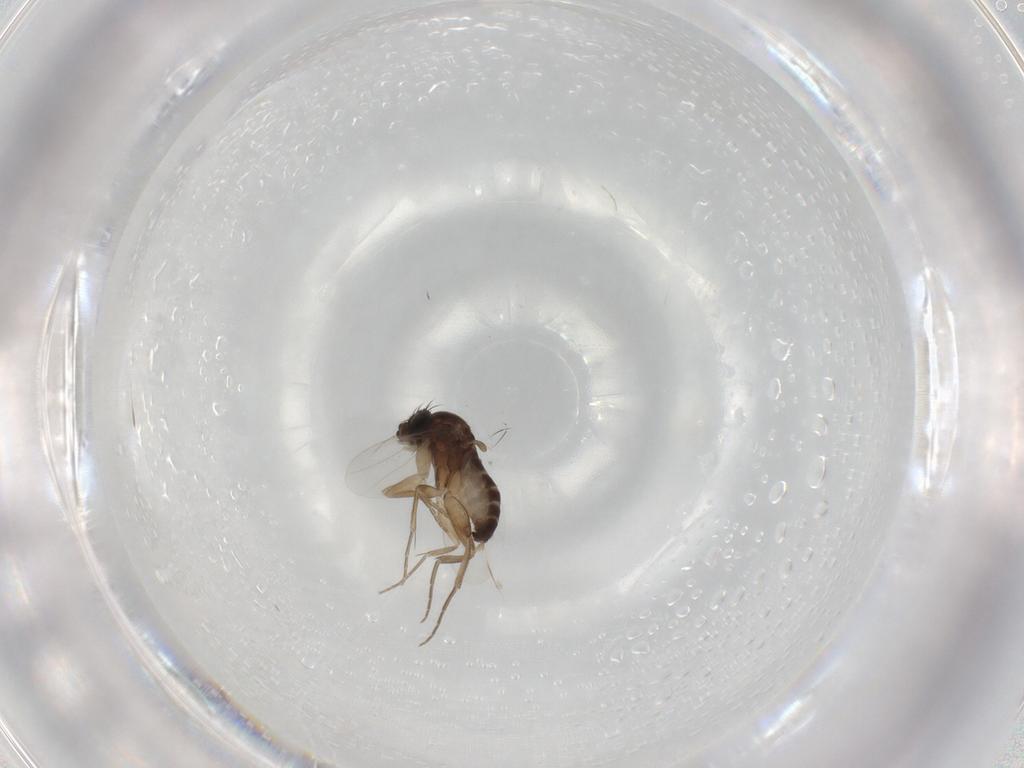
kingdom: Animalia
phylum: Arthropoda
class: Insecta
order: Diptera
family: Phoridae
